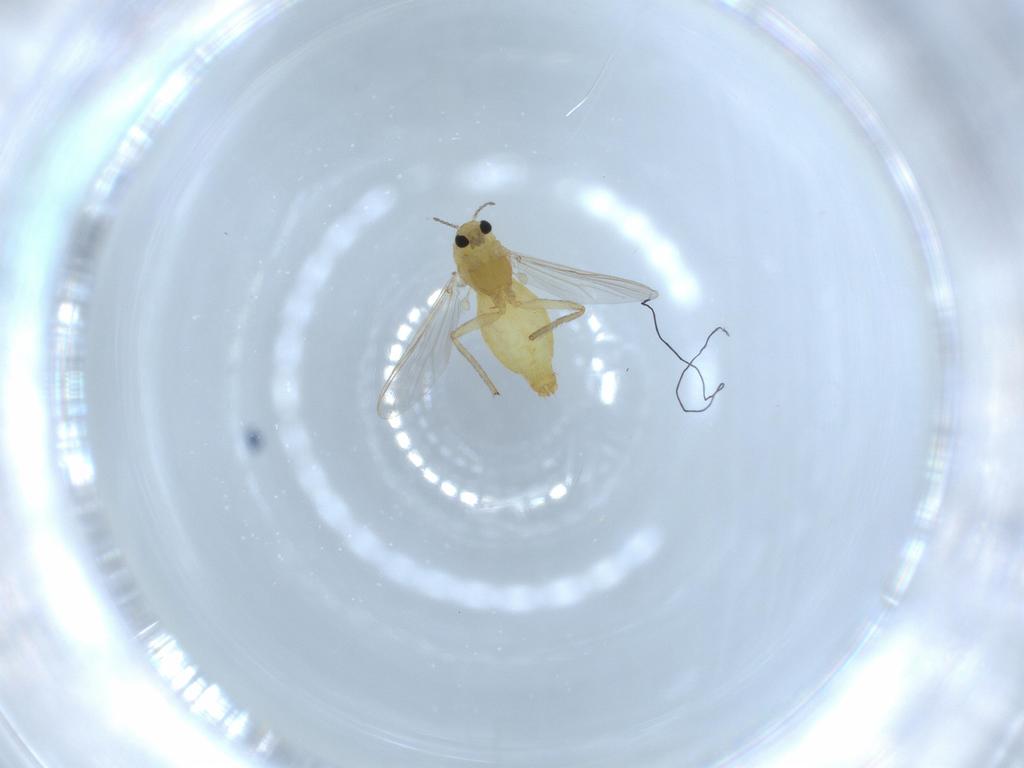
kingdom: Animalia
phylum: Arthropoda
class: Insecta
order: Diptera
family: Chironomidae
